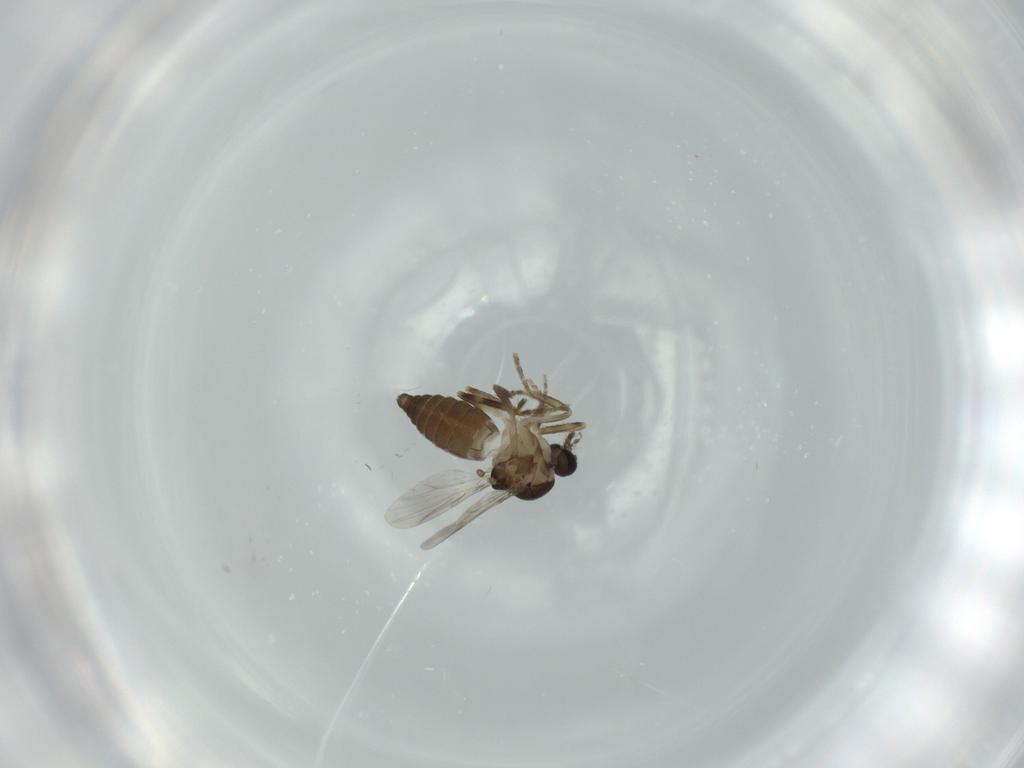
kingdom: Animalia
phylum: Arthropoda
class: Insecta
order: Diptera
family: Ceratopogonidae
